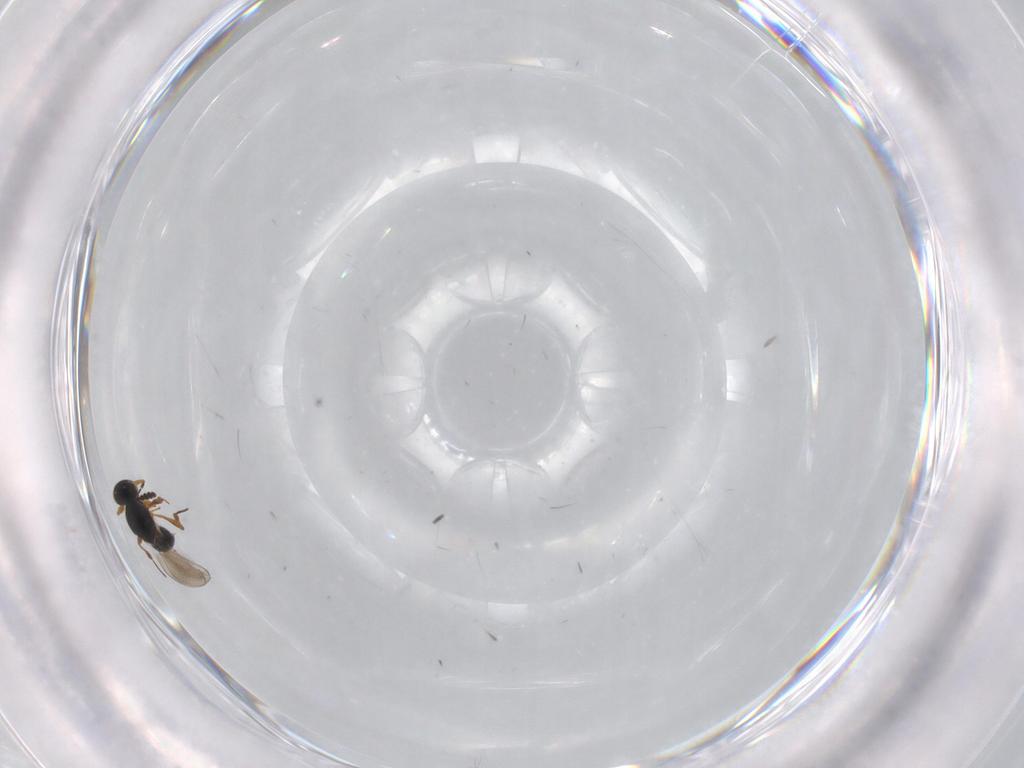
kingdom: Animalia
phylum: Arthropoda
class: Insecta
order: Hymenoptera
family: Platygastridae
